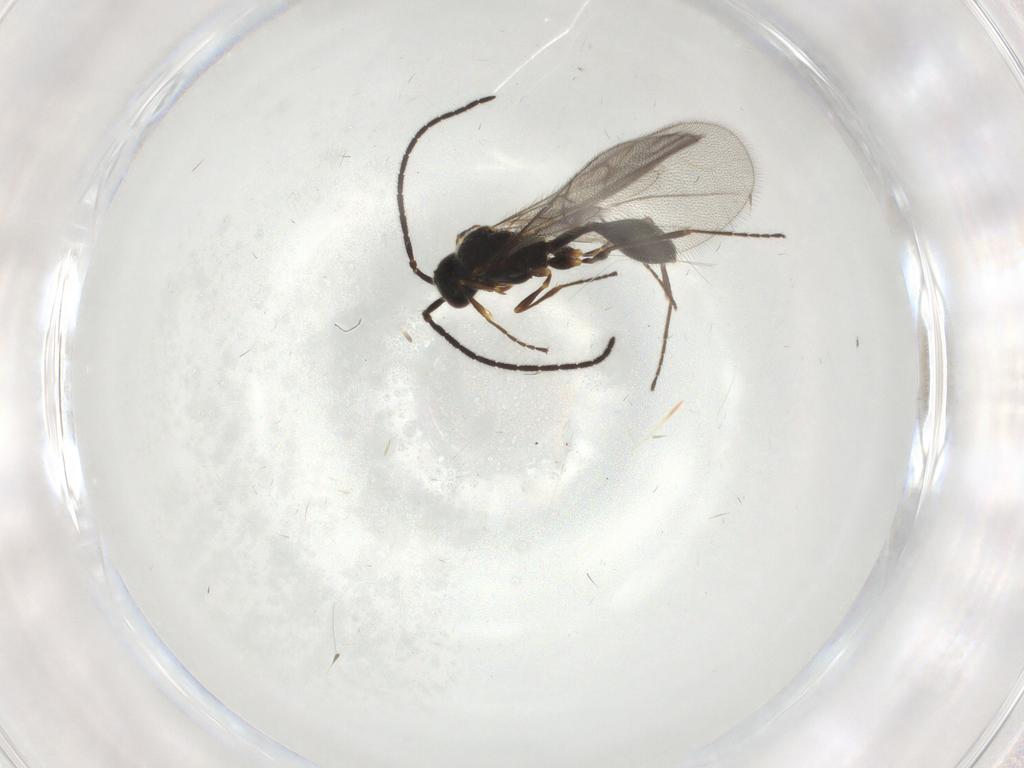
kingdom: Animalia
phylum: Arthropoda
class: Insecta
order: Hymenoptera
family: Diapriidae
